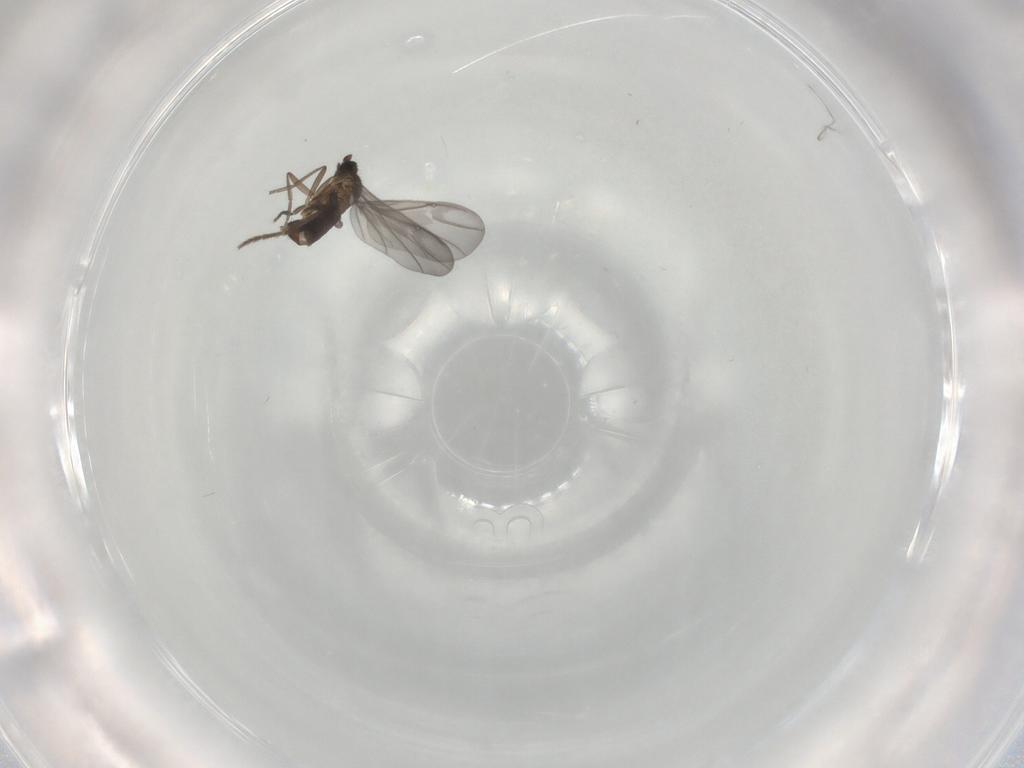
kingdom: Animalia
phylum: Arthropoda
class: Insecta
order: Diptera
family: Phoridae
